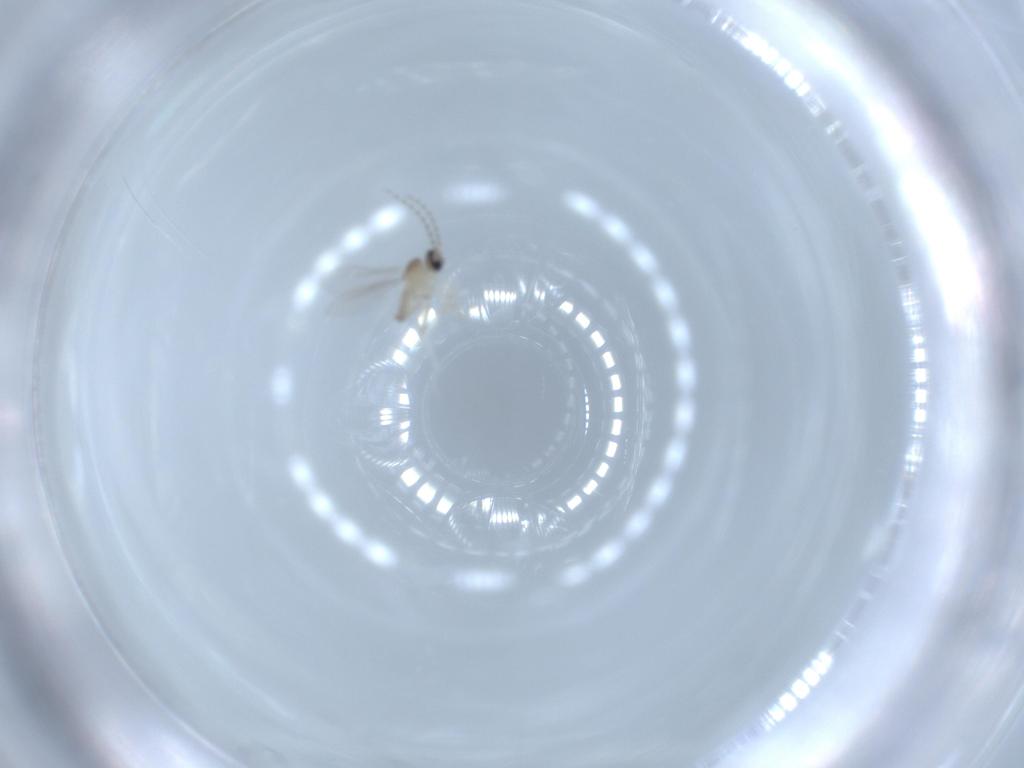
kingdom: Animalia
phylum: Arthropoda
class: Insecta
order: Diptera
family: Cecidomyiidae
